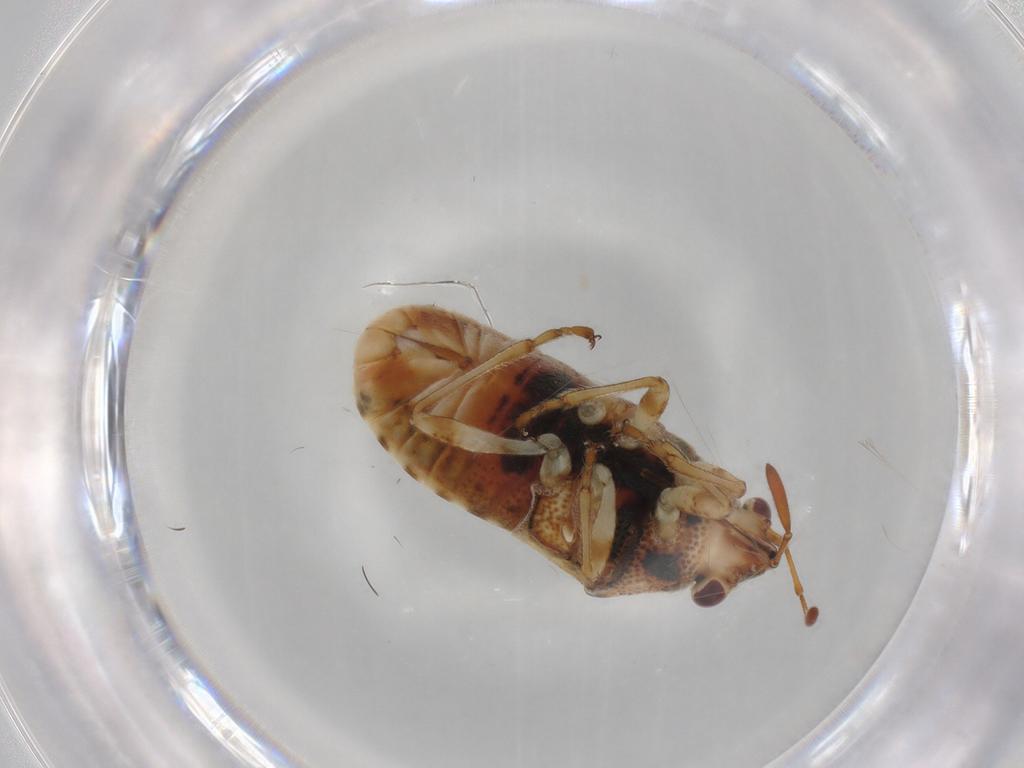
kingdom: Animalia
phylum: Arthropoda
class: Insecta
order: Hemiptera
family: Lygaeidae
